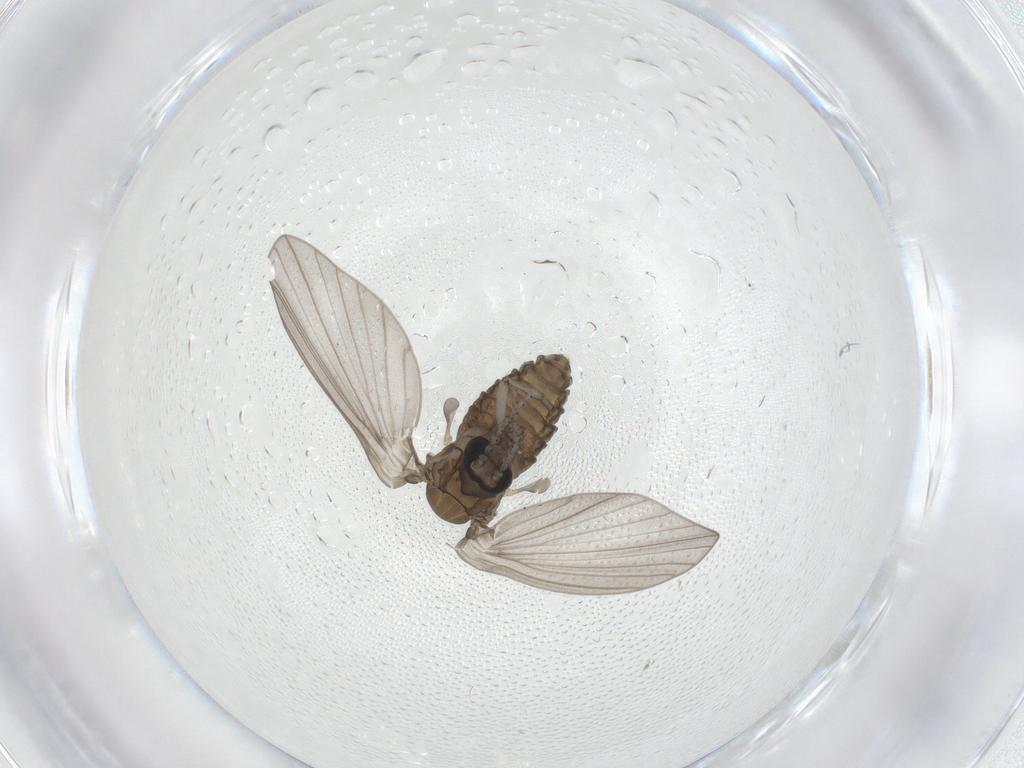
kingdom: Animalia
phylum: Arthropoda
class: Insecta
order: Diptera
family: Psychodidae
